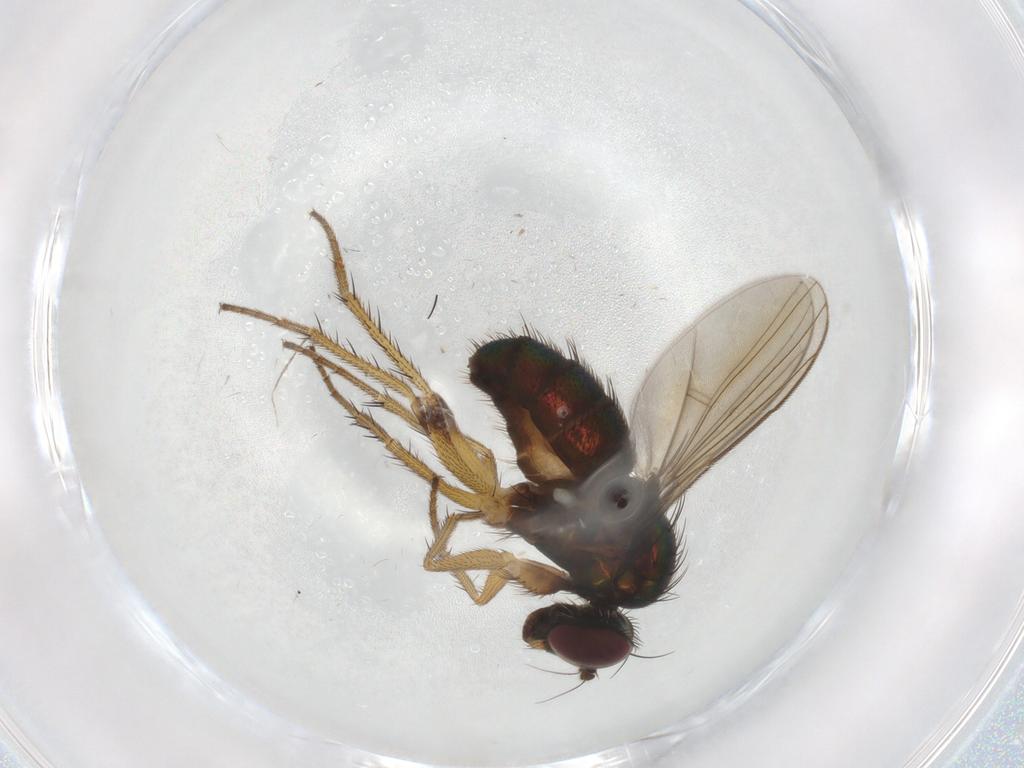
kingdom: Animalia
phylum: Arthropoda
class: Insecta
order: Diptera
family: Dolichopodidae
